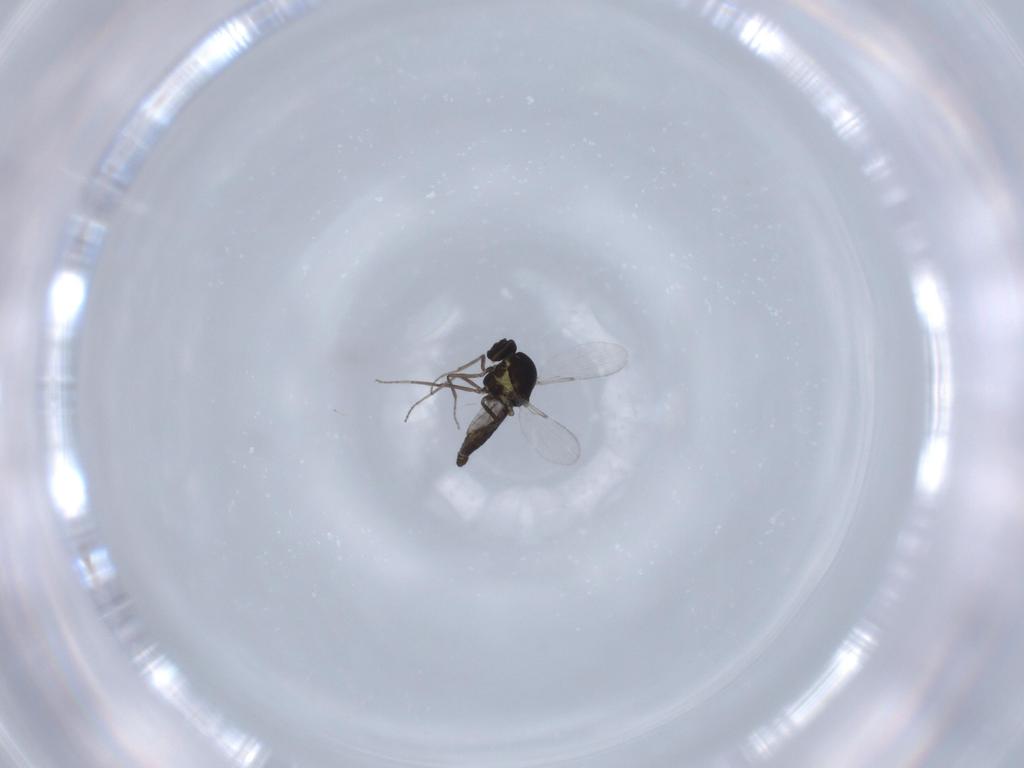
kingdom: Animalia
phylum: Arthropoda
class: Insecta
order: Diptera
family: Ceratopogonidae
